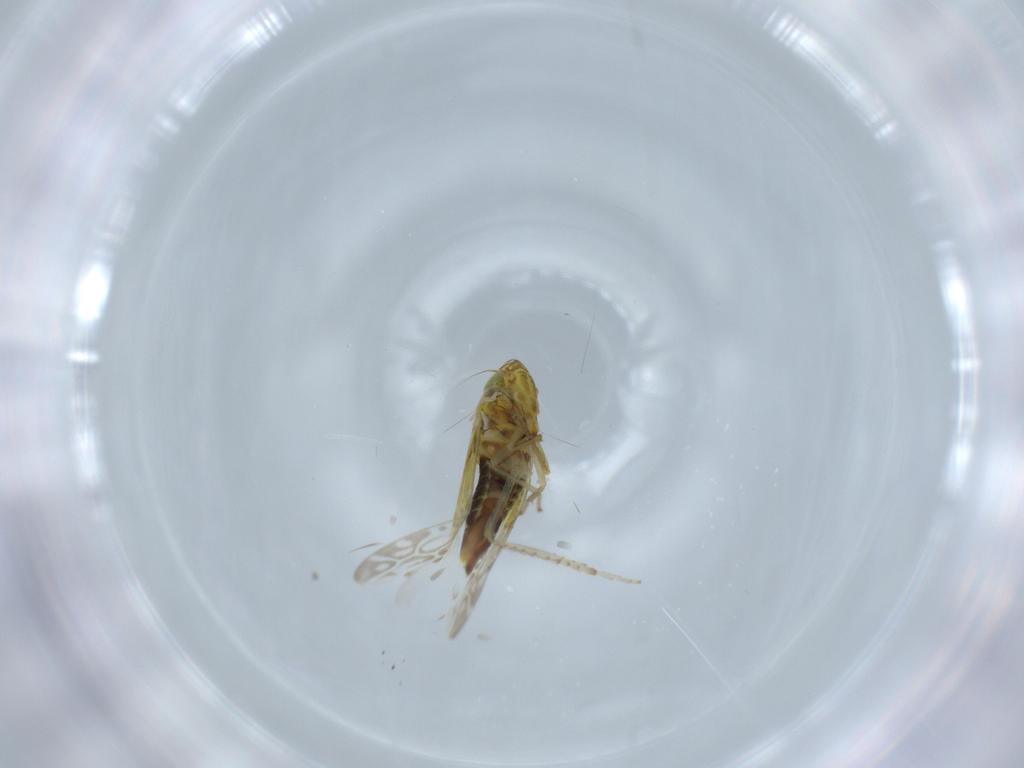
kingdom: Animalia
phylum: Arthropoda
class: Insecta
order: Hemiptera
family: Cicadellidae
